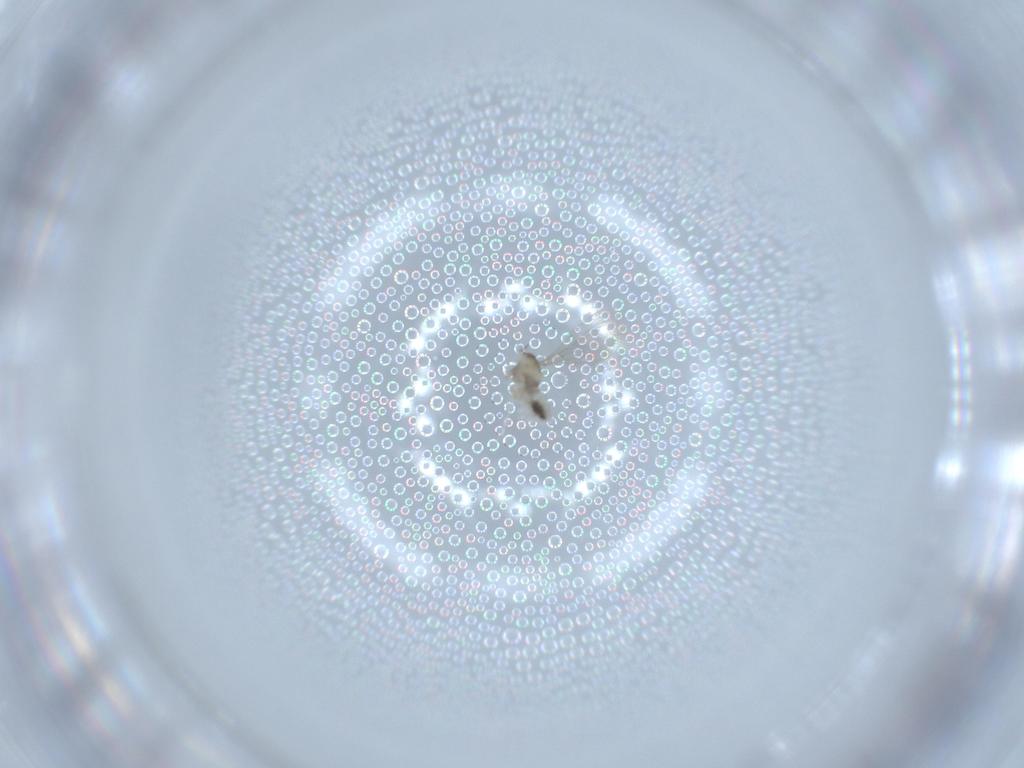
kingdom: Animalia
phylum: Arthropoda
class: Insecta
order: Diptera
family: Cecidomyiidae
